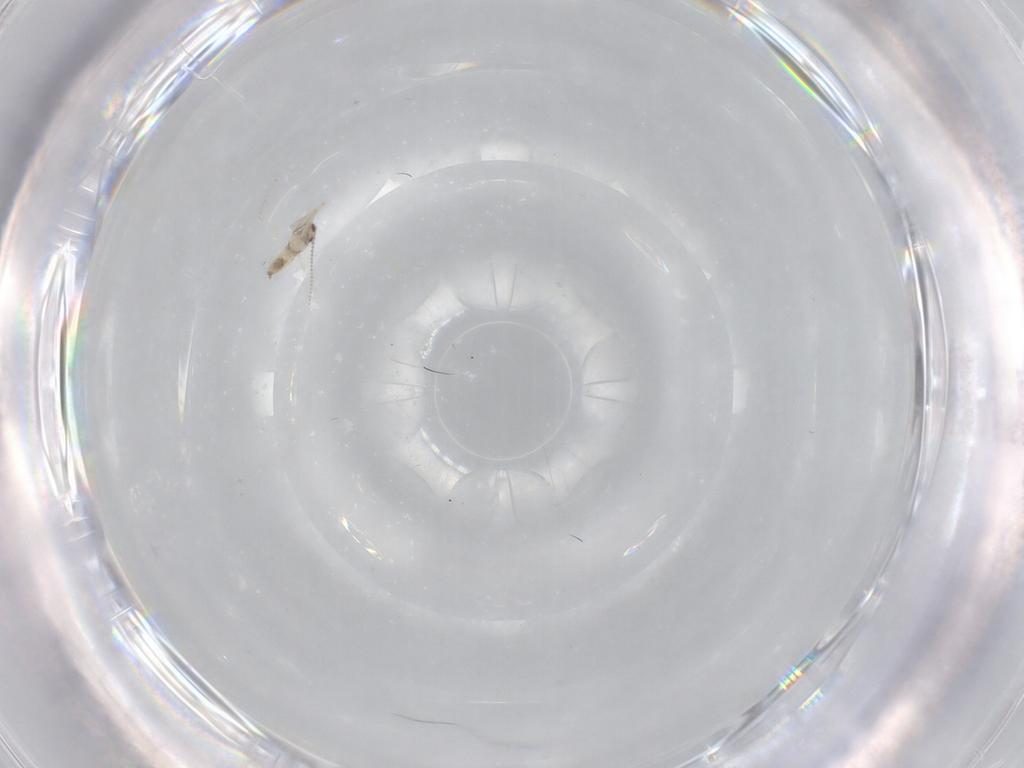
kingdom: Animalia
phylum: Arthropoda
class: Insecta
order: Diptera
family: Cecidomyiidae
